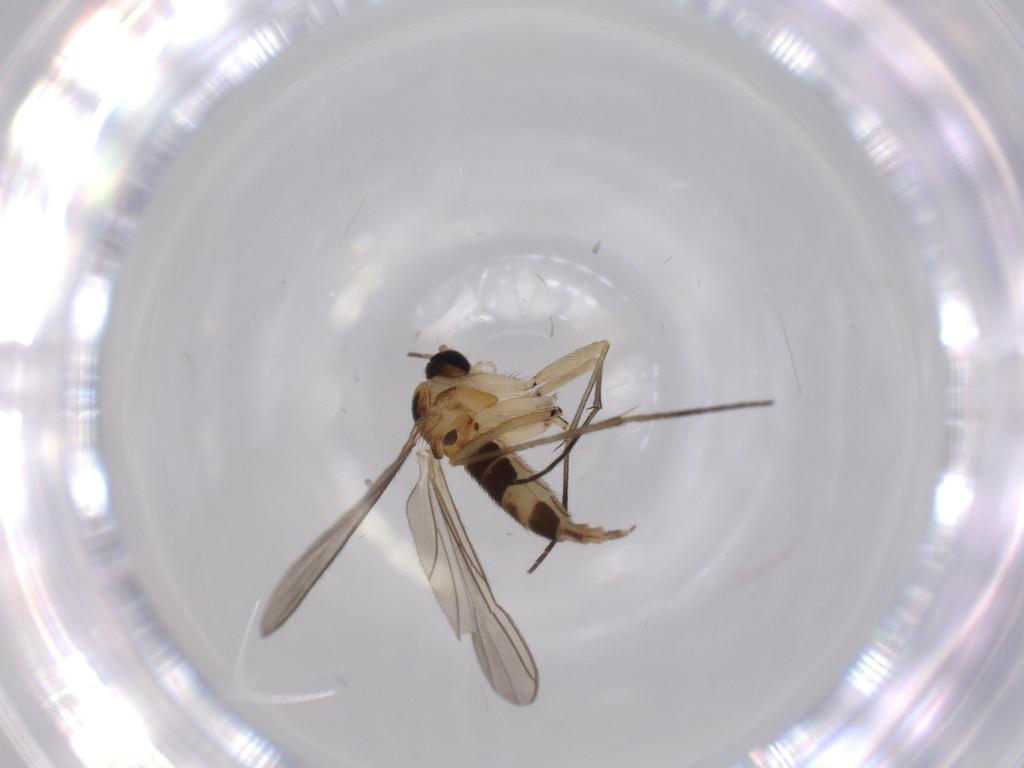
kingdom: Animalia
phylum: Arthropoda
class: Insecta
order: Diptera
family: Sciaridae
